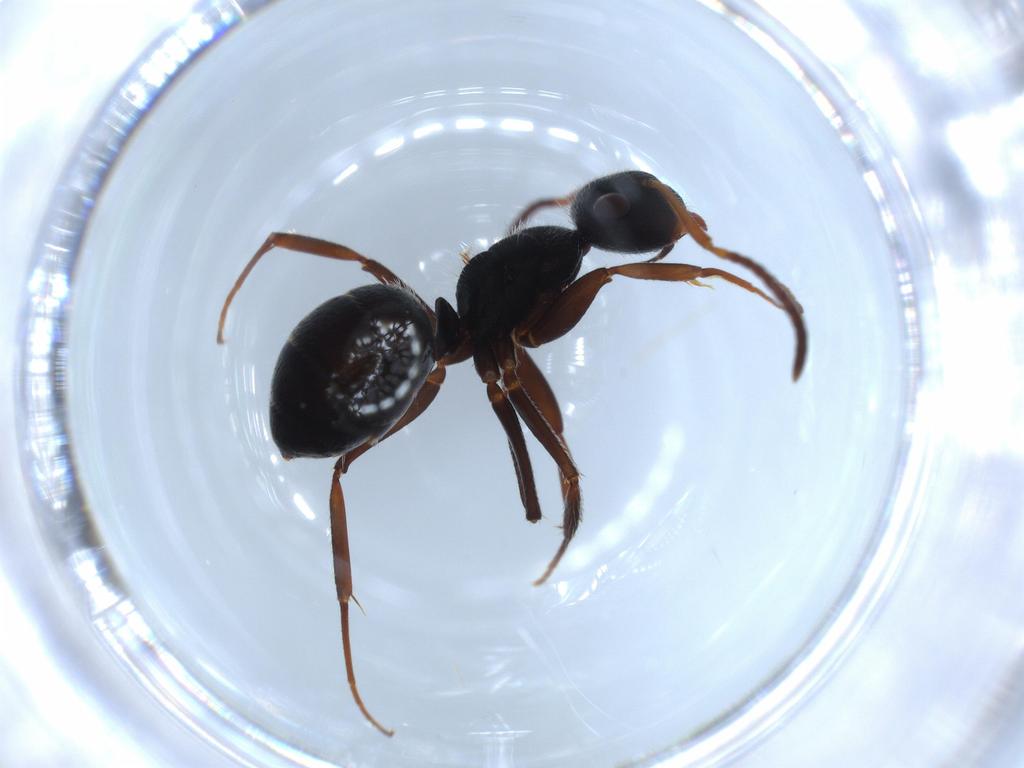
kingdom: Animalia
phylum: Arthropoda
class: Insecta
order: Hymenoptera
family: Formicidae
